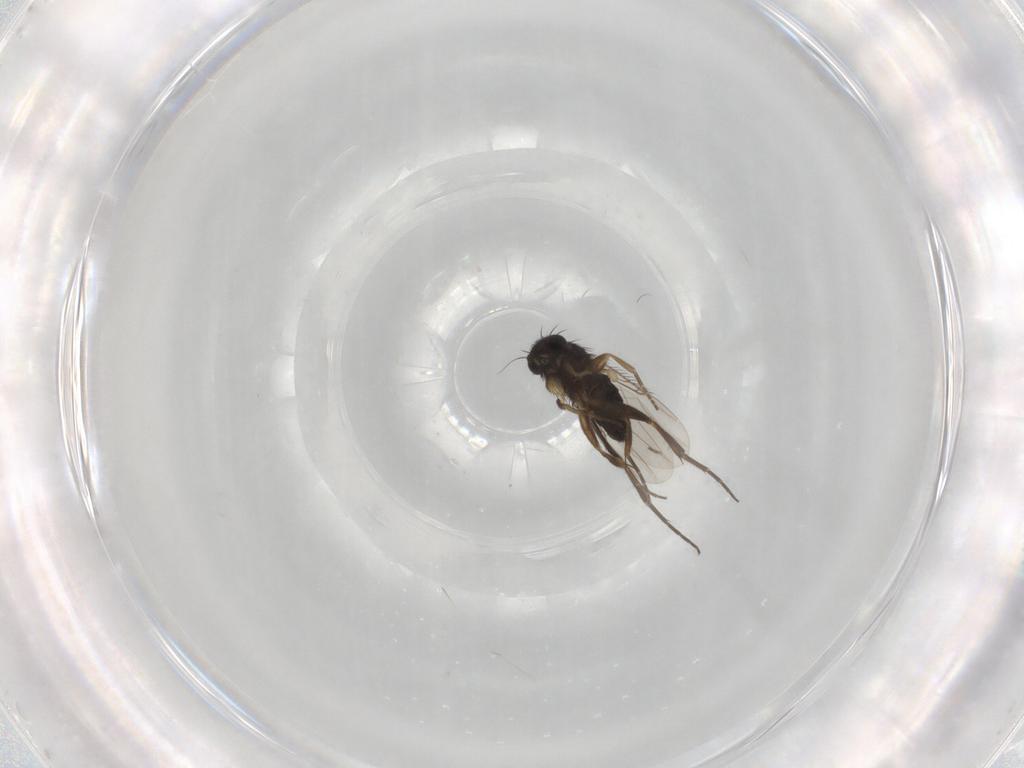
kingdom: Animalia
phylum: Arthropoda
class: Insecta
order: Diptera
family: Phoridae
